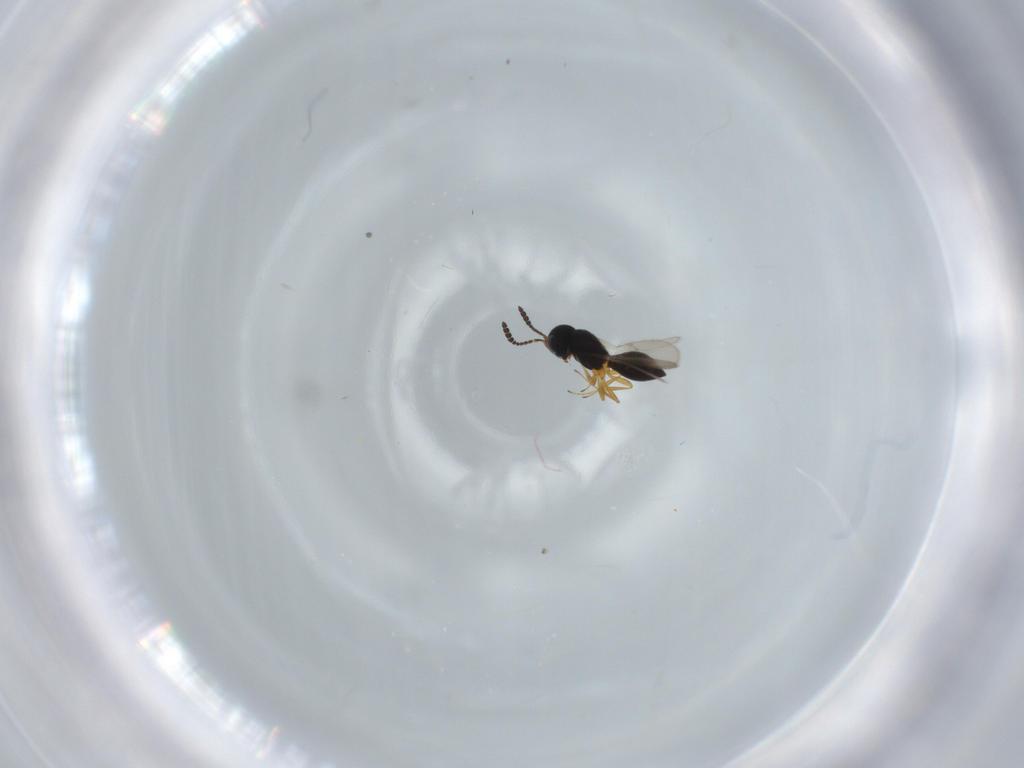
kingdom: Animalia
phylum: Arthropoda
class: Insecta
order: Hymenoptera
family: Scelionidae
